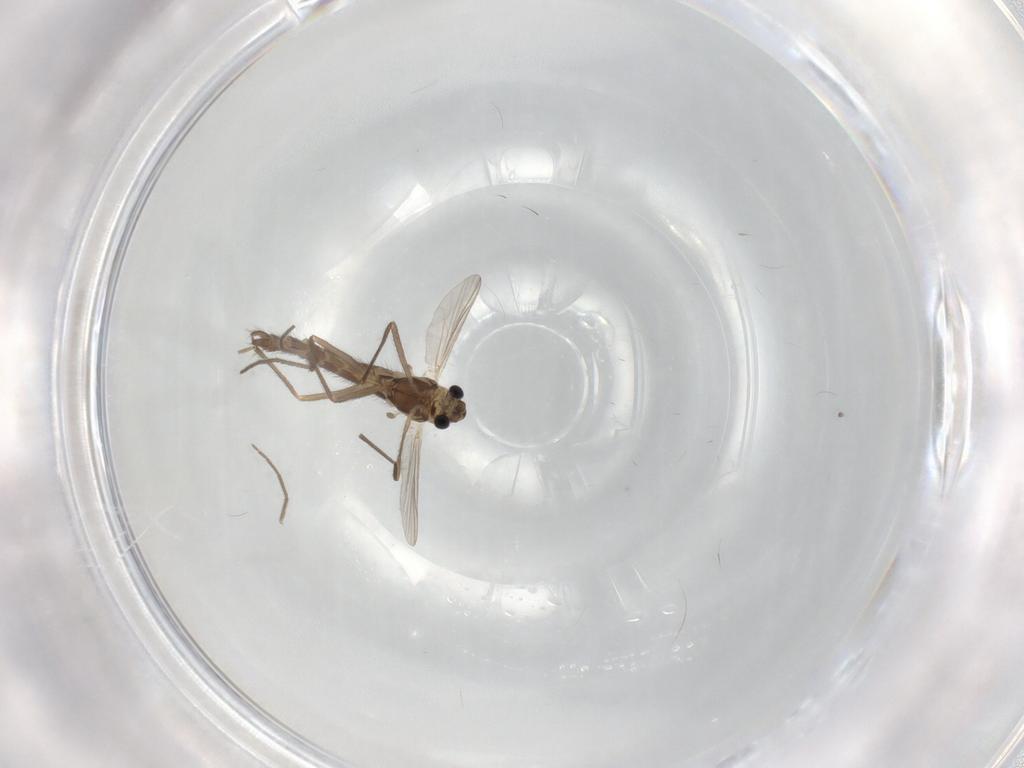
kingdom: Animalia
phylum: Arthropoda
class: Insecta
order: Diptera
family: Chironomidae
